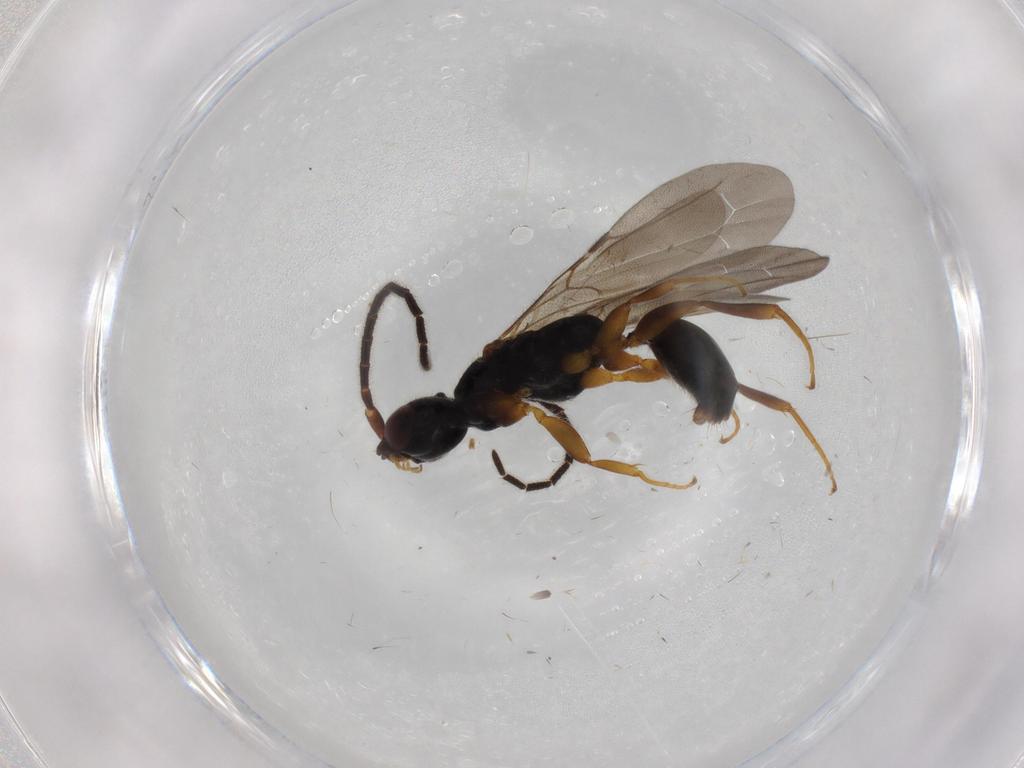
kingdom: Animalia
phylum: Arthropoda
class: Insecta
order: Hymenoptera
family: Bethylidae
